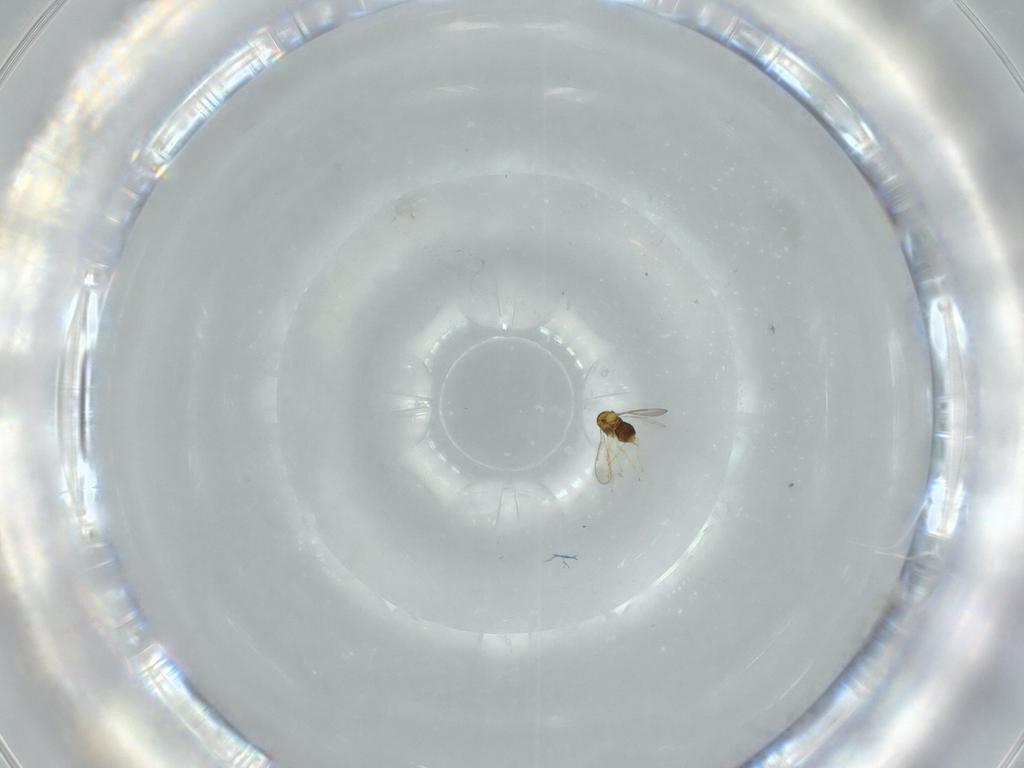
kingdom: Animalia
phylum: Arthropoda
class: Insecta
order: Hymenoptera
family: Aphelinidae
